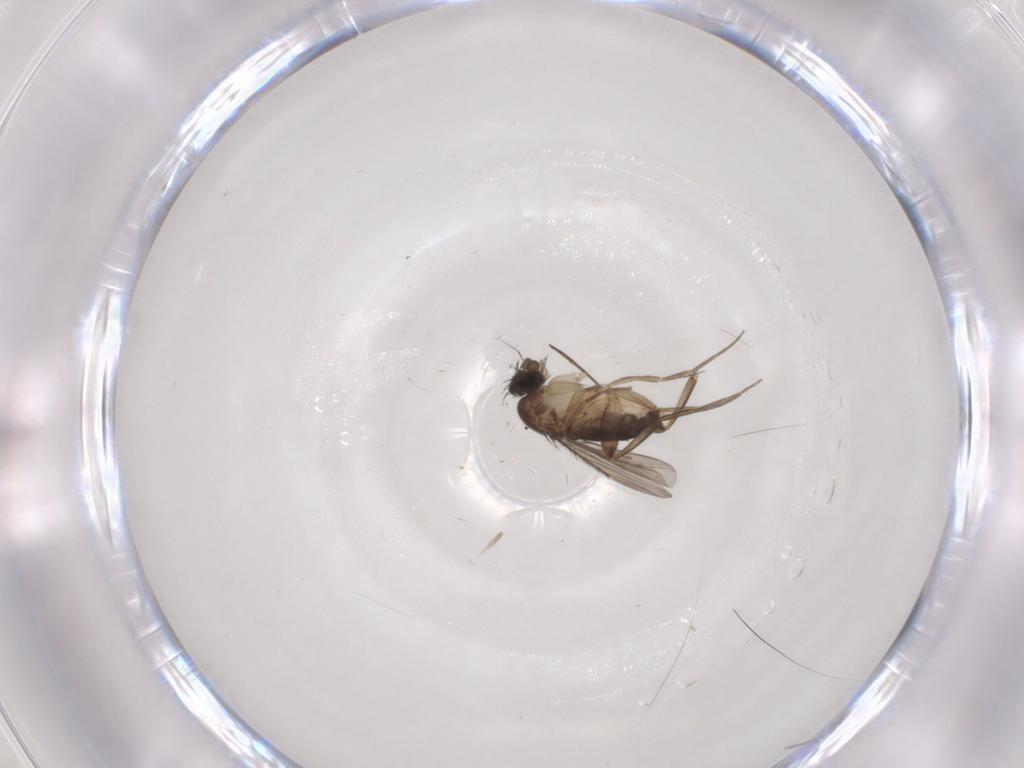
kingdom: Animalia
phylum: Arthropoda
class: Insecta
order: Diptera
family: Phoridae
